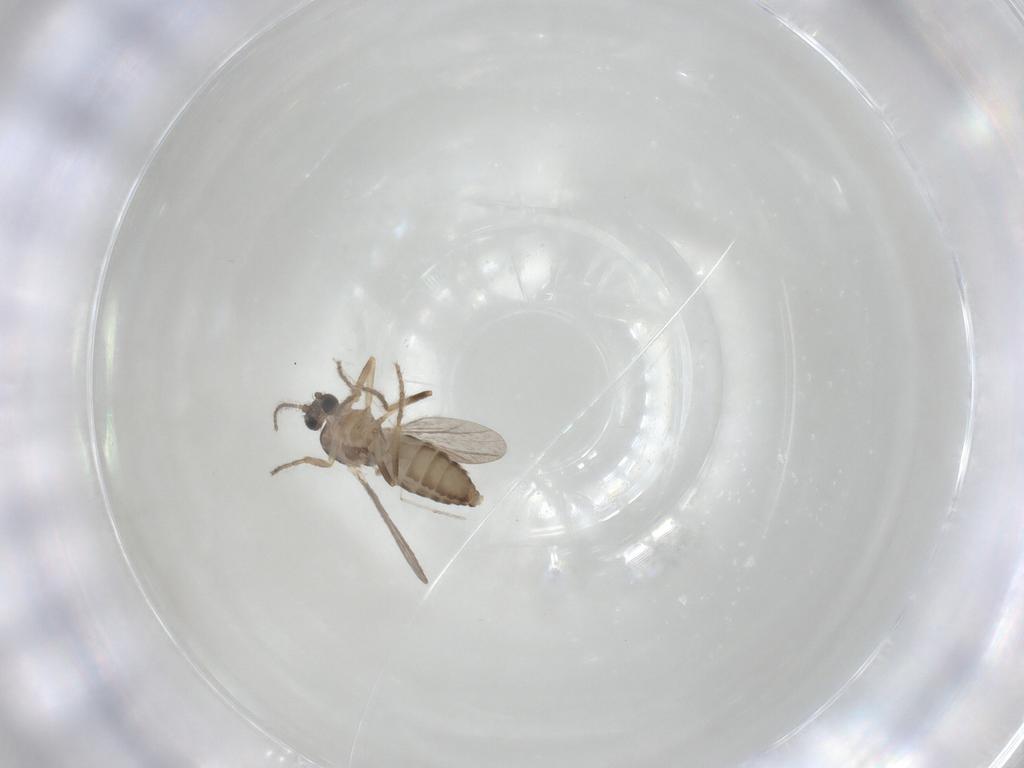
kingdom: Animalia
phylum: Arthropoda
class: Insecta
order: Diptera
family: Ceratopogonidae
